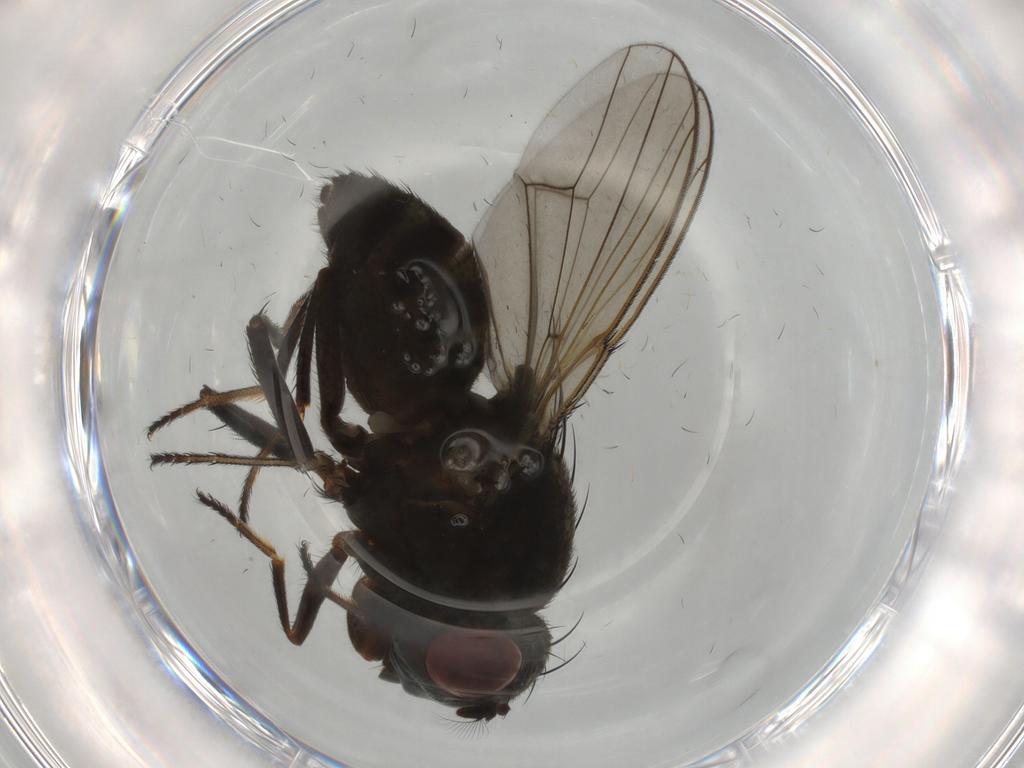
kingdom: Animalia
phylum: Arthropoda
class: Insecta
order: Diptera
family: Ephydridae
